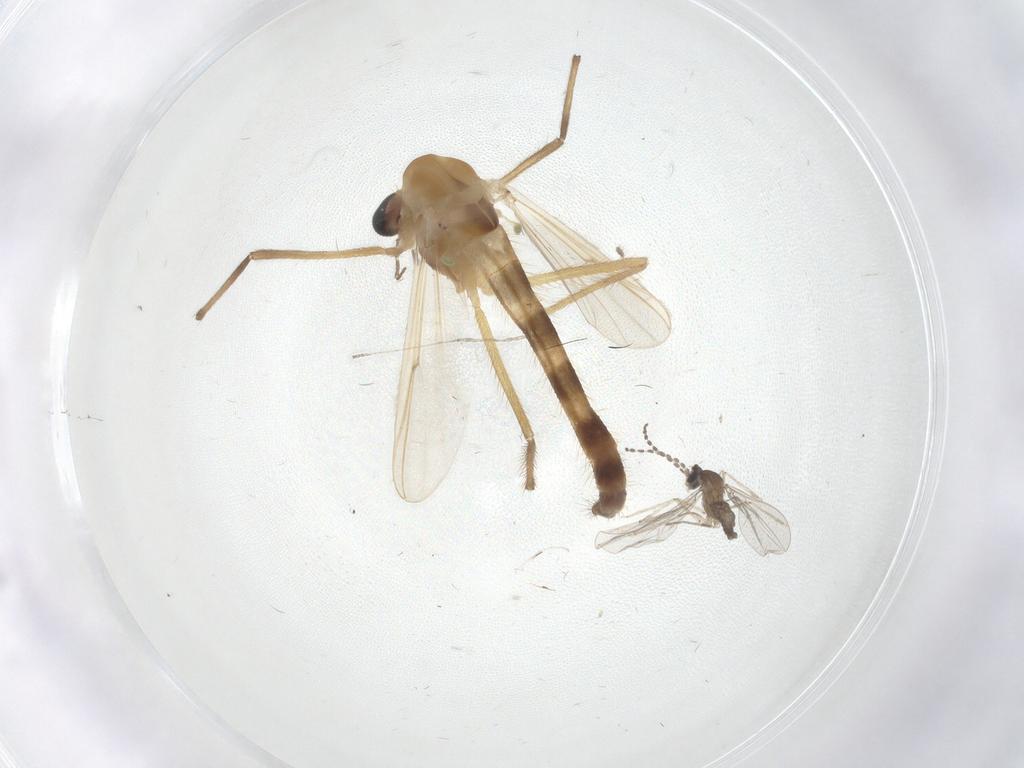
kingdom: Animalia
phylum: Arthropoda
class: Insecta
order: Diptera
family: Chironomidae
